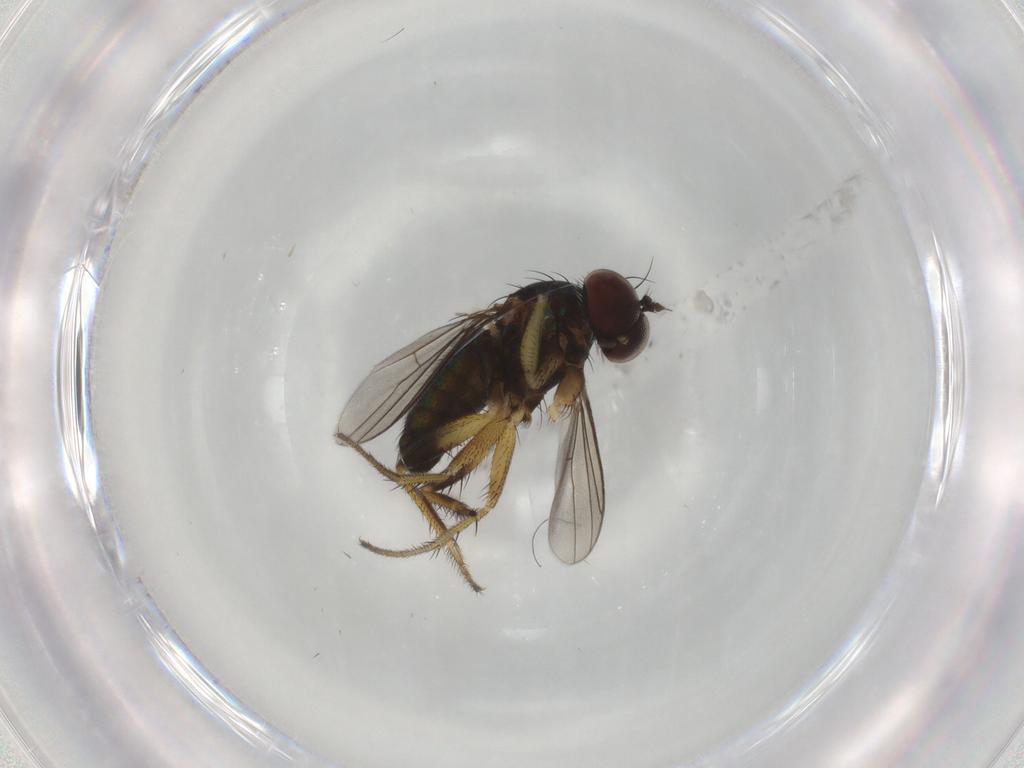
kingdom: Animalia
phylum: Arthropoda
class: Insecta
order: Diptera
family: Dolichopodidae
